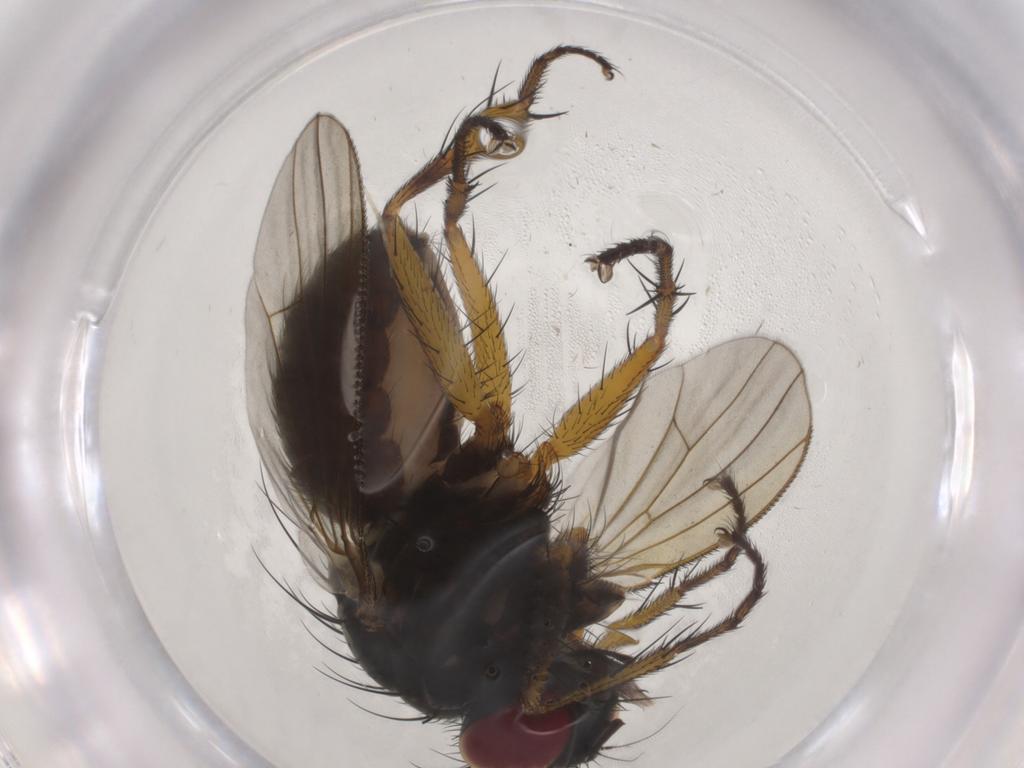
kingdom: Animalia
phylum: Arthropoda
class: Insecta
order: Diptera
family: Muscidae
